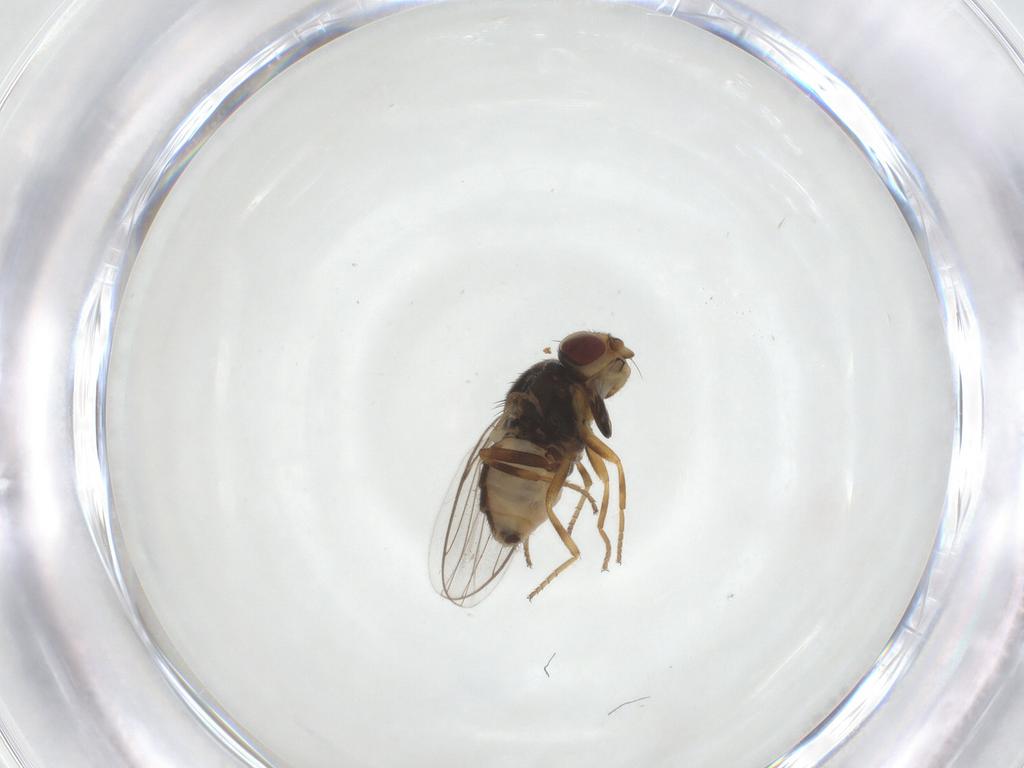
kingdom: Animalia
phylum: Arthropoda
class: Insecta
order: Diptera
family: Chloropidae
